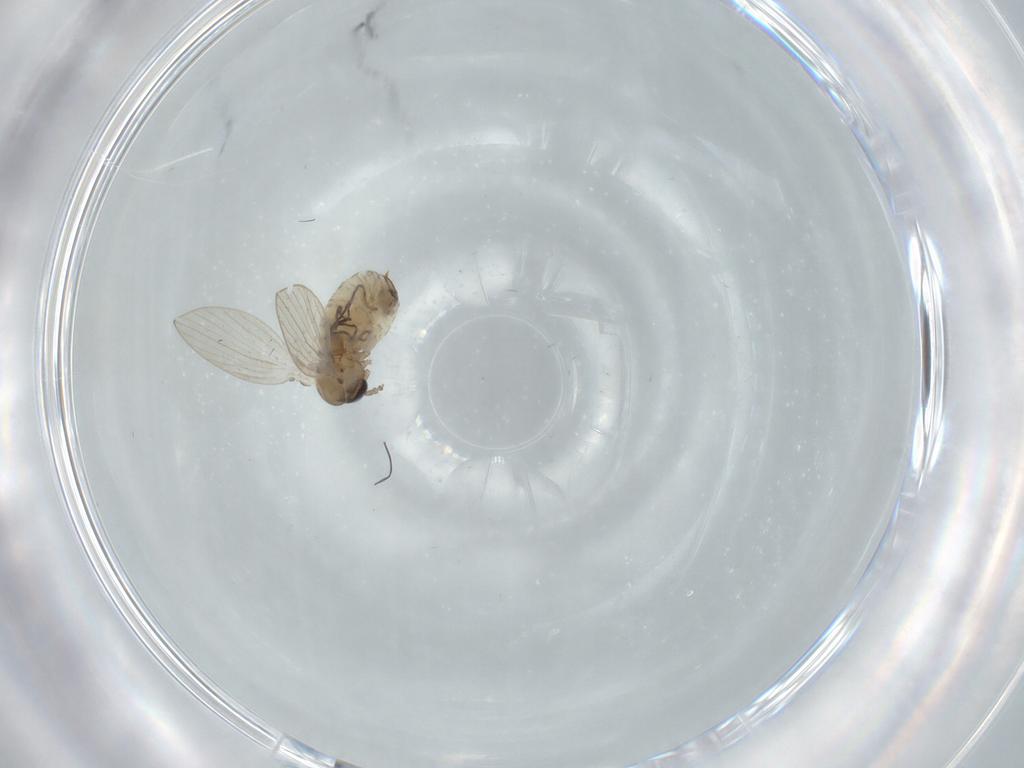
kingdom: Animalia
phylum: Arthropoda
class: Insecta
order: Diptera
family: Psychodidae
